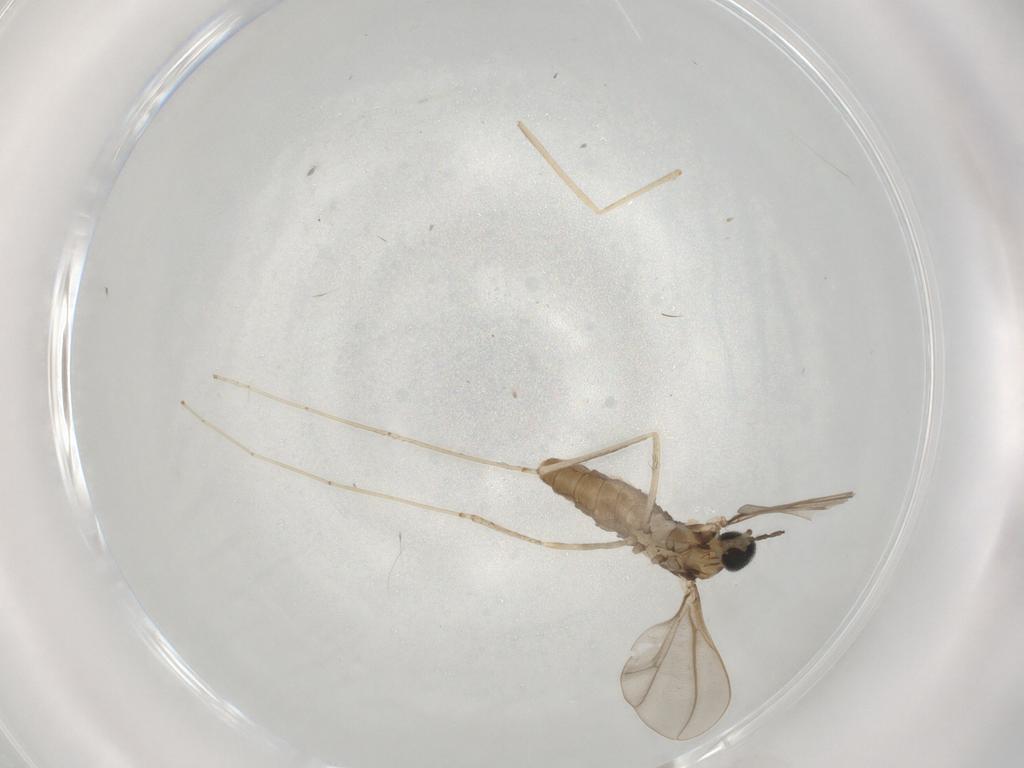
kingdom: Animalia
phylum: Arthropoda
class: Insecta
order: Diptera
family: Cecidomyiidae
